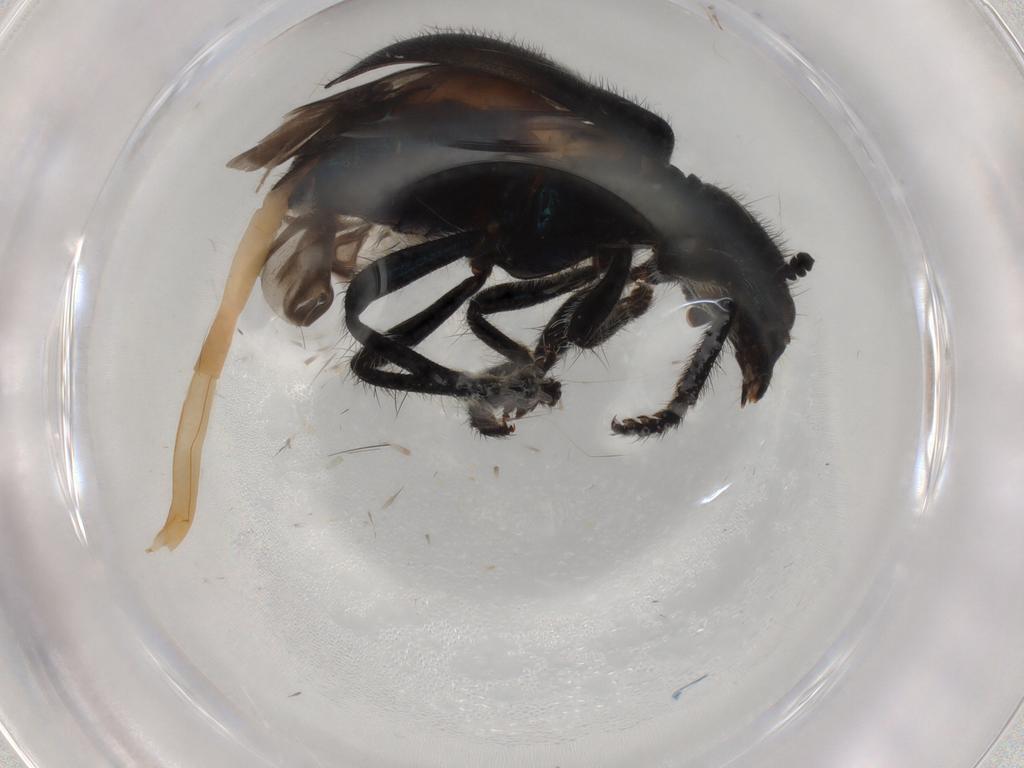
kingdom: Animalia
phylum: Arthropoda
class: Insecta
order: Coleoptera
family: Cleridae
